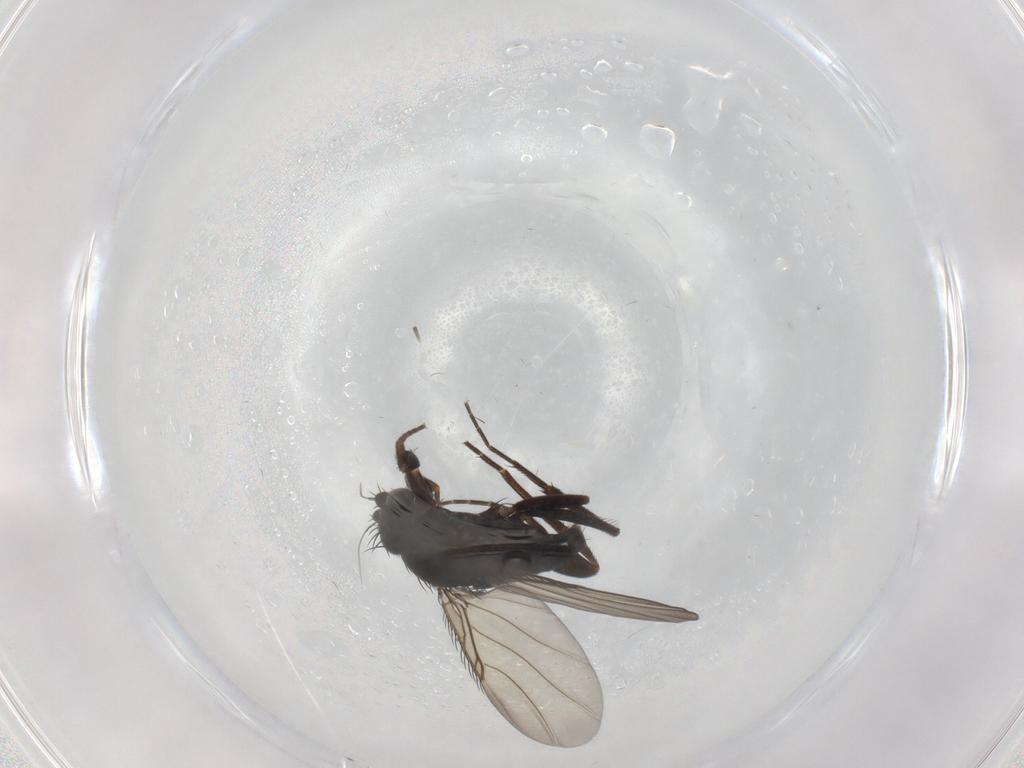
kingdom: Animalia
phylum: Arthropoda
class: Insecta
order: Diptera
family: Phoridae
